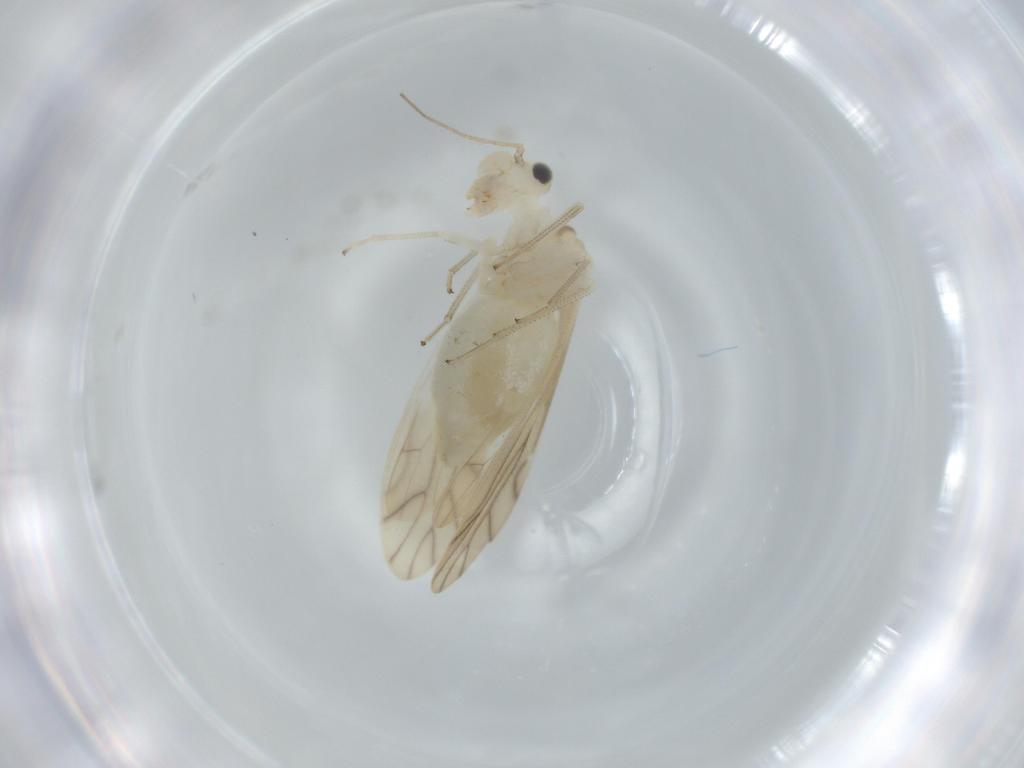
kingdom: Animalia
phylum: Arthropoda
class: Insecta
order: Psocodea
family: Caeciliusidae
